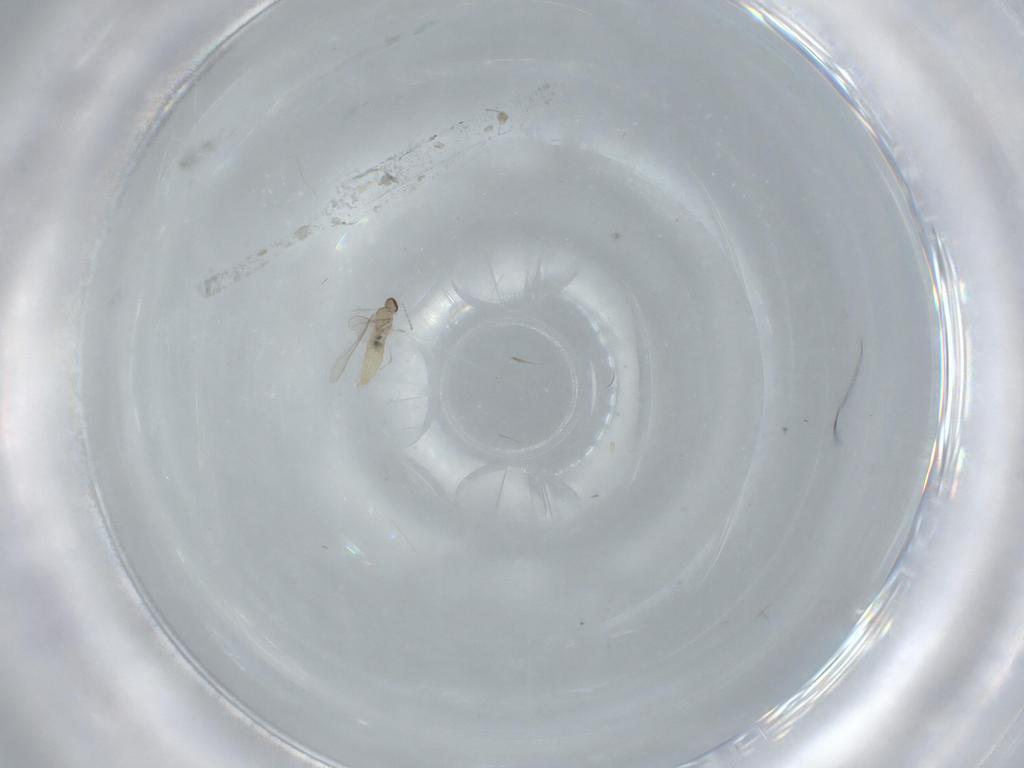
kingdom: Animalia
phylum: Arthropoda
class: Insecta
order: Diptera
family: Cecidomyiidae
